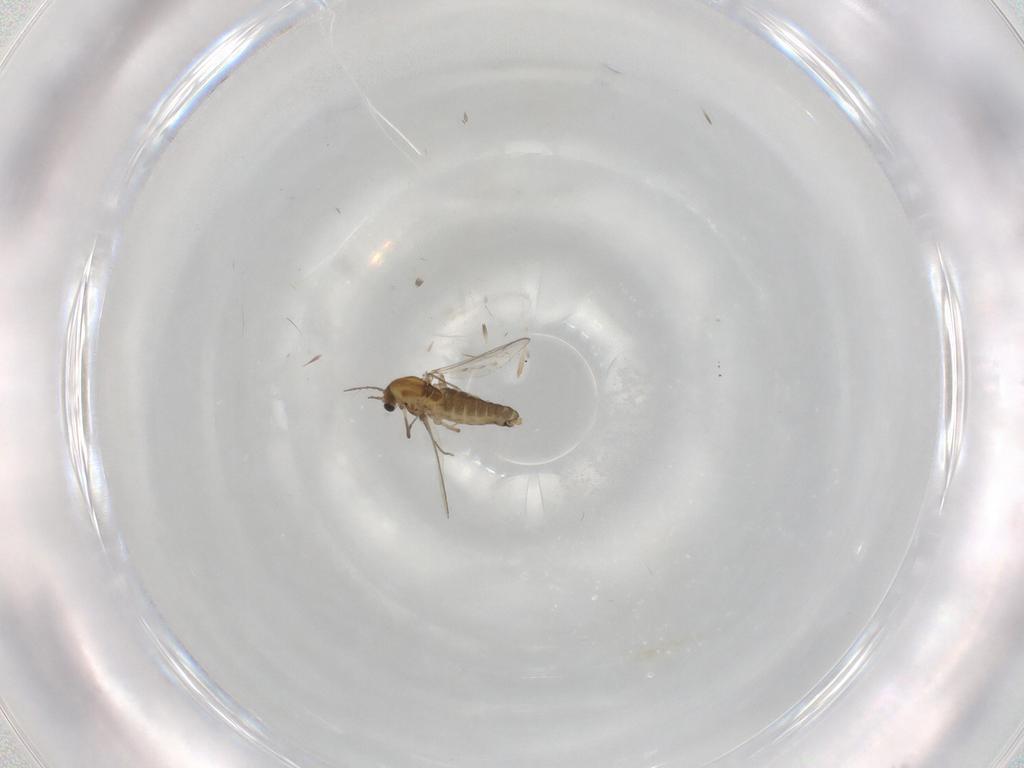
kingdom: Animalia
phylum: Arthropoda
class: Insecta
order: Diptera
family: Chironomidae
